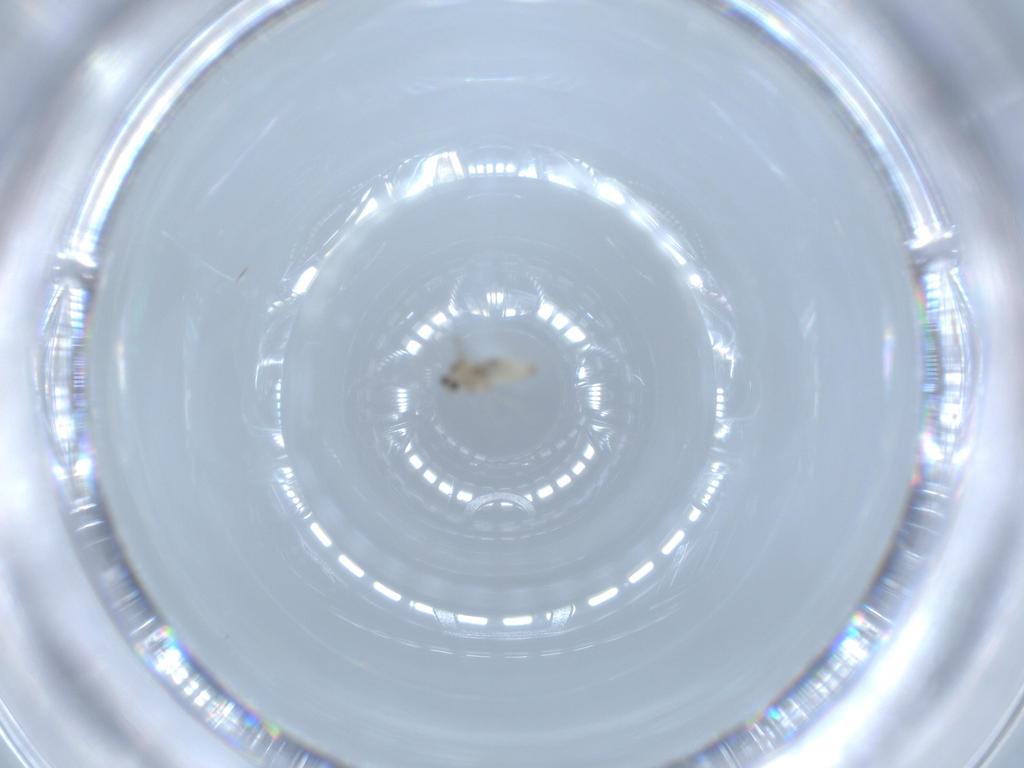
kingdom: Animalia
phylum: Arthropoda
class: Insecta
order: Diptera
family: Cecidomyiidae
